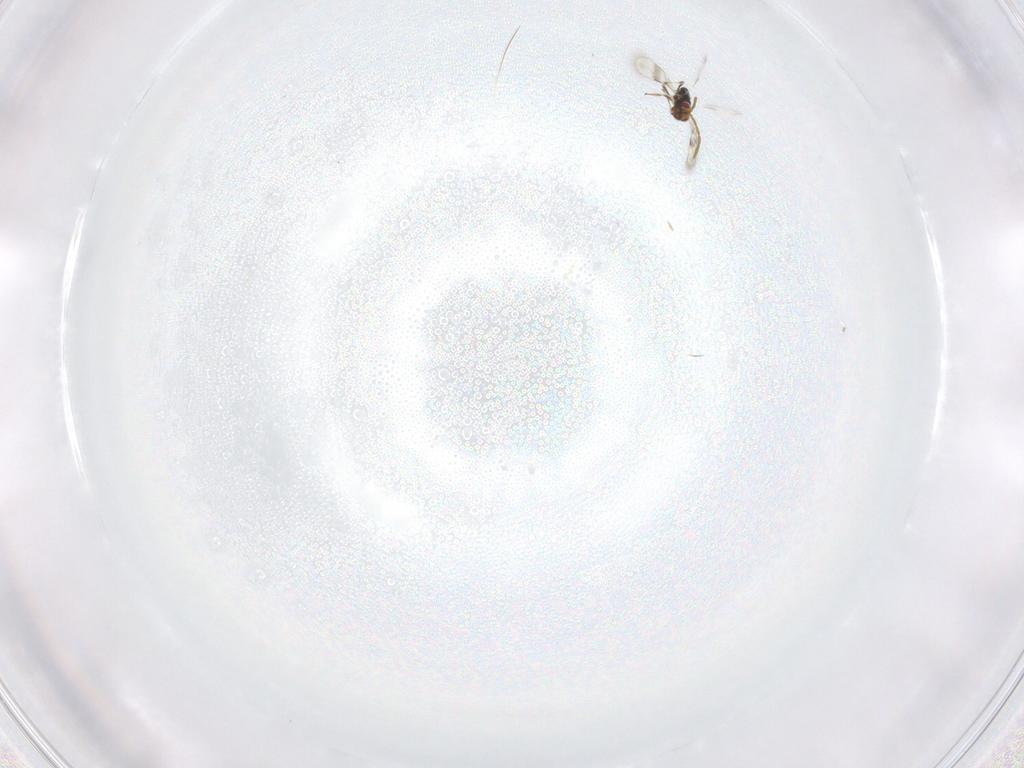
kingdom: Animalia
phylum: Arthropoda
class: Insecta
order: Hymenoptera
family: Azotidae
